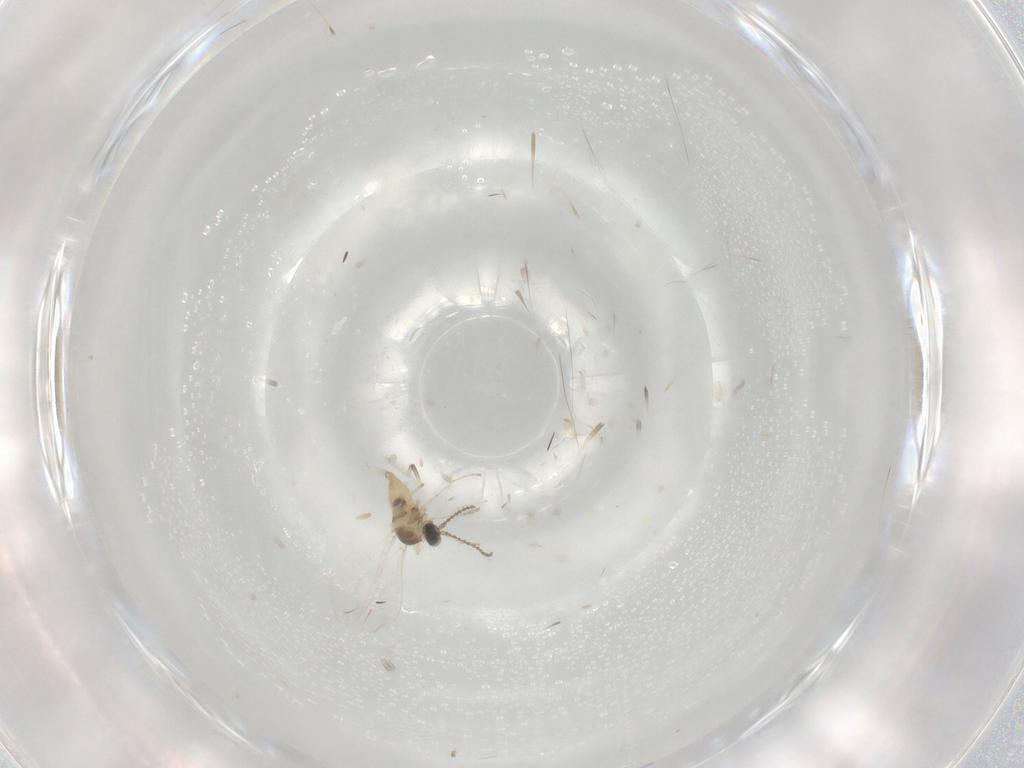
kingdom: Animalia
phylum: Arthropoda
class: Insecta
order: Diptera
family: Cecidomyiidae
